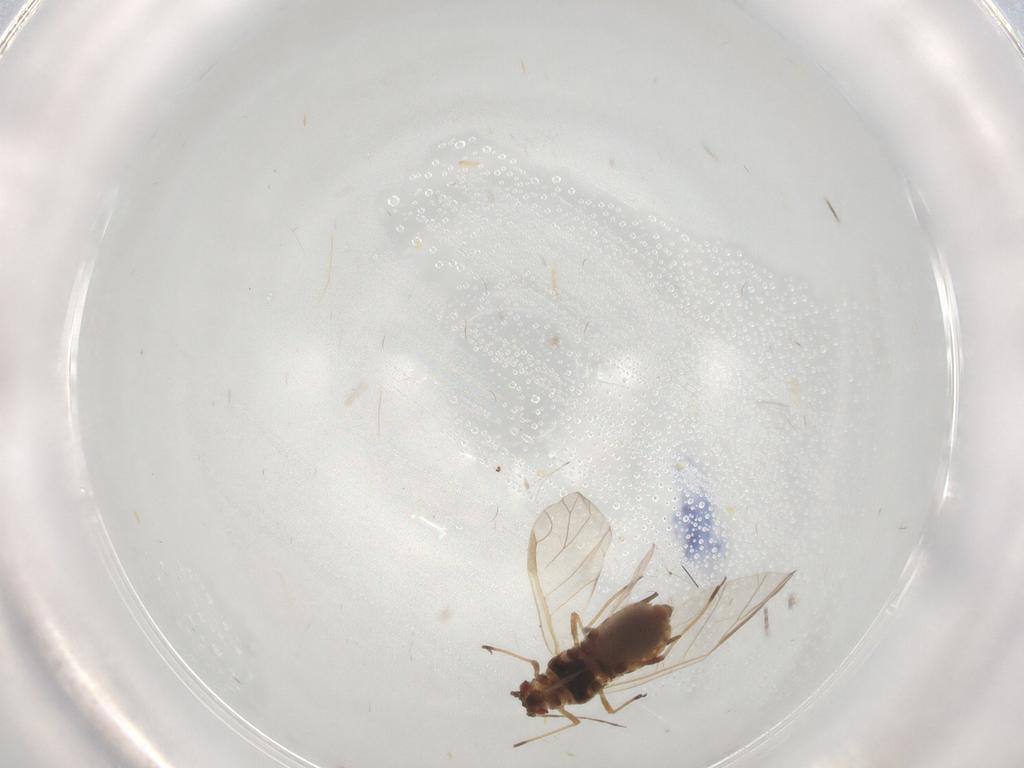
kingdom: Animalia
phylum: Arthropoda
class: Insecta
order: Hemiptera
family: Aphididae
